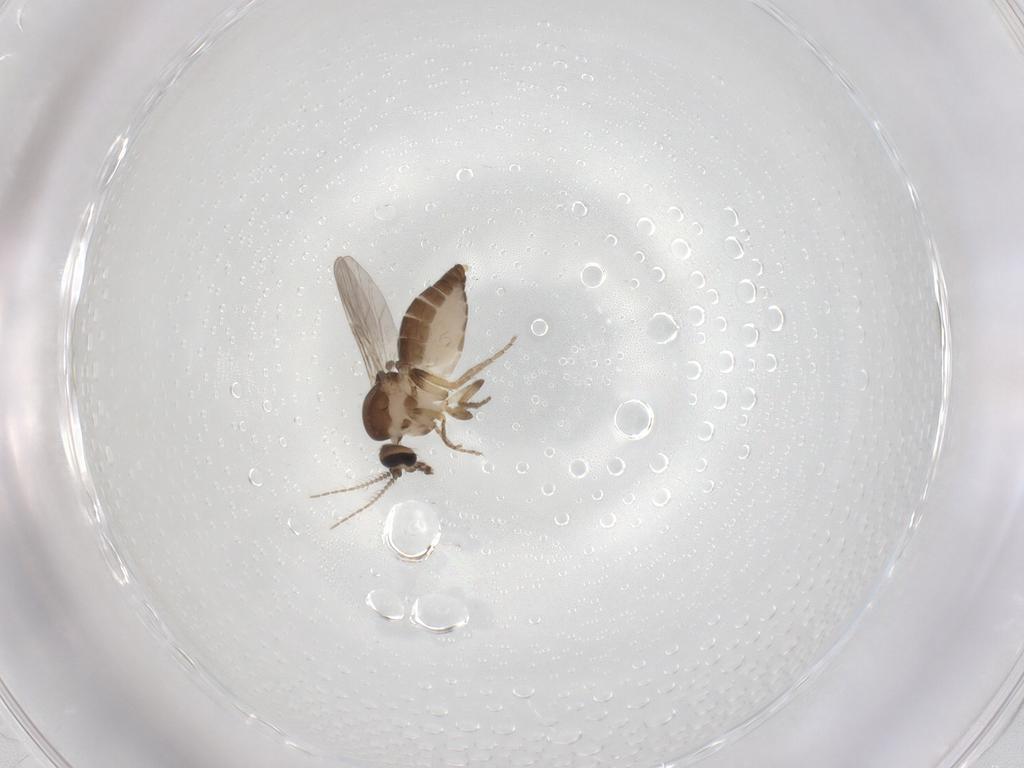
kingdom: Animalia
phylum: Arthropoda
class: Insecta
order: Diptera
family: Ceratopogonidae
